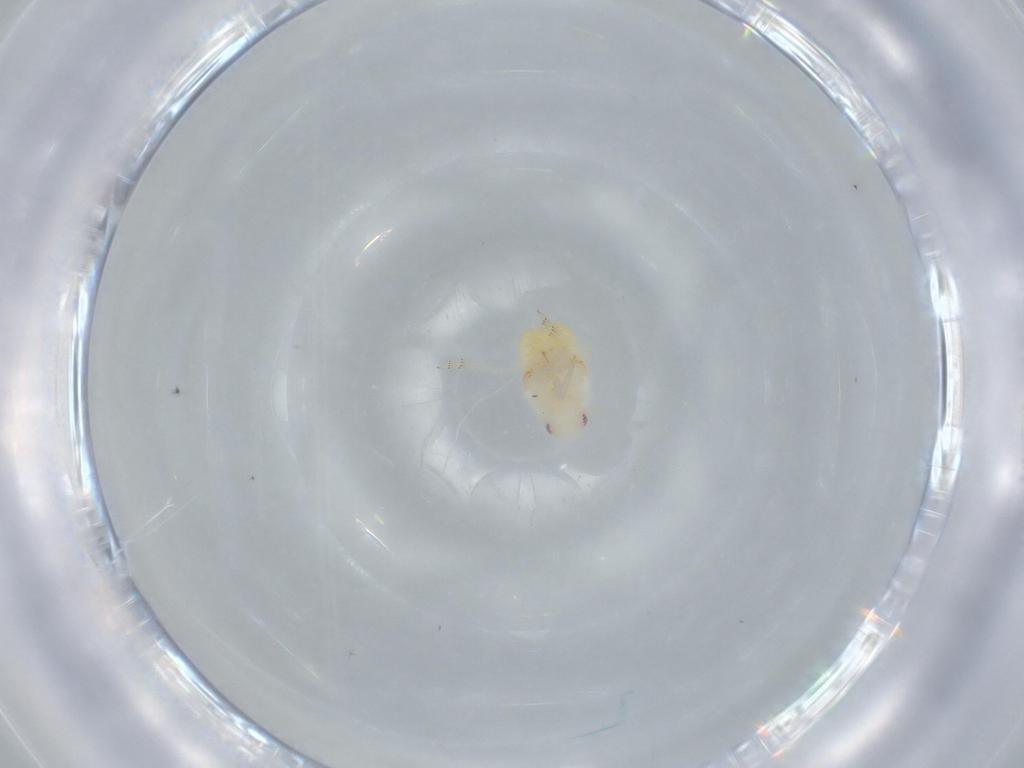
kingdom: Animalia
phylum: Arthropoda
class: Insecta
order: Hemiptera
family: Flatidae
